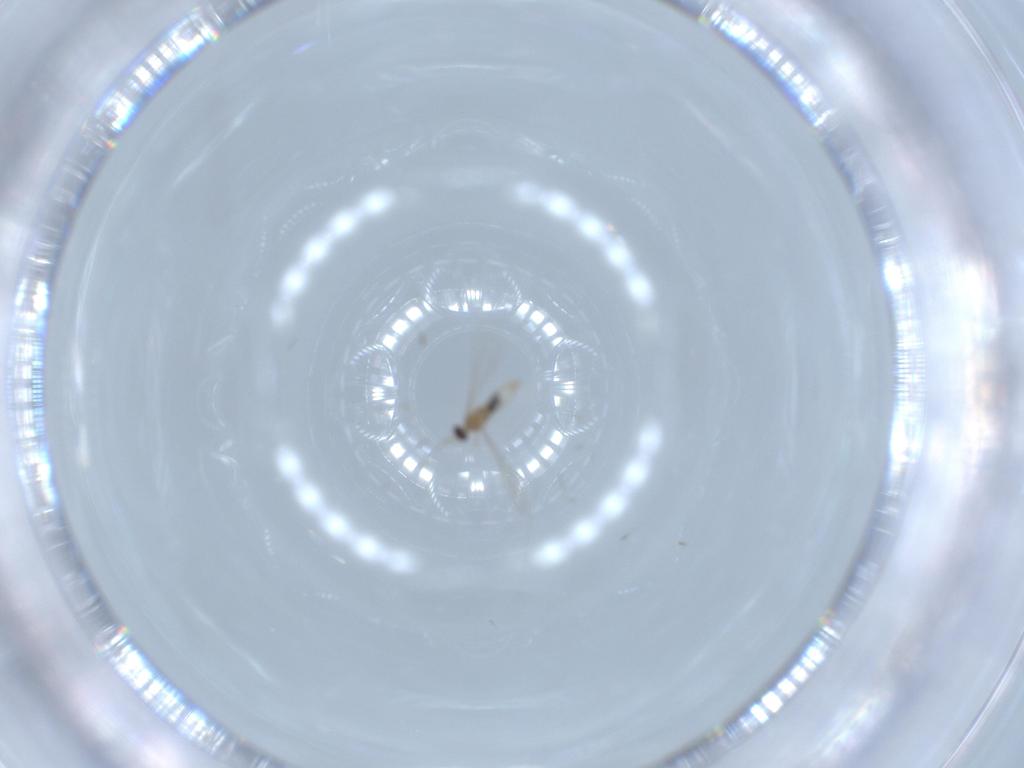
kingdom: Animalia
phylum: Arthropoda
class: Insecta
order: Diptera
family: Cecidomyiidae
